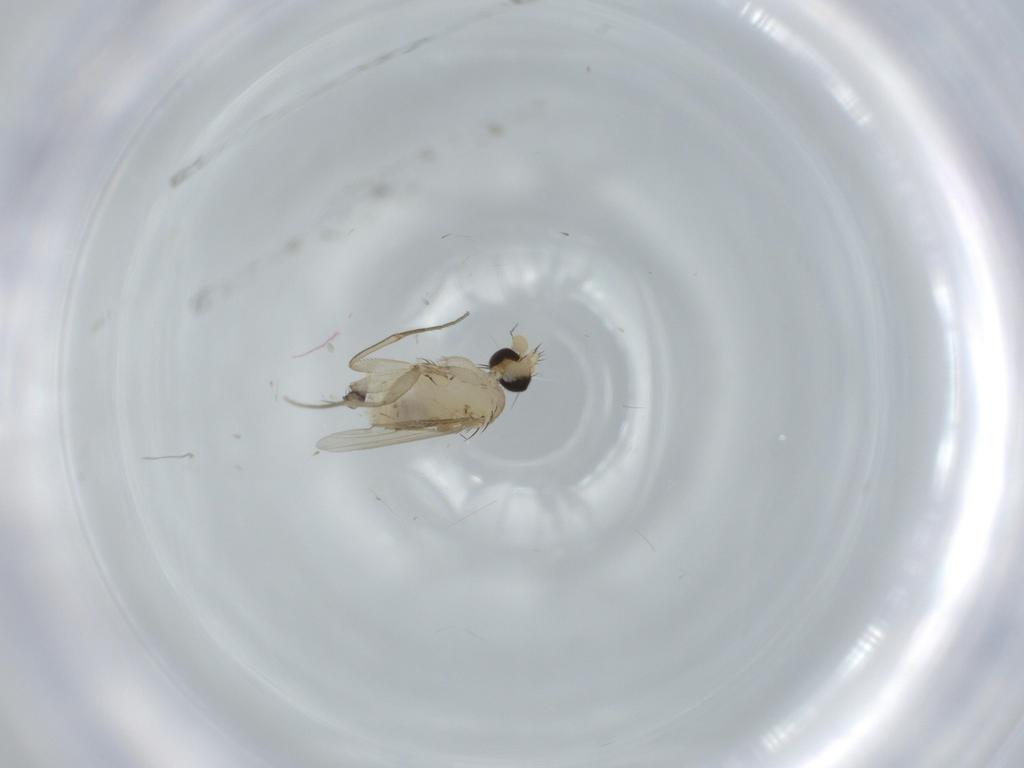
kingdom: Animalia
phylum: Arthropoda
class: Insecta
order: Diptera
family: Phoridae
